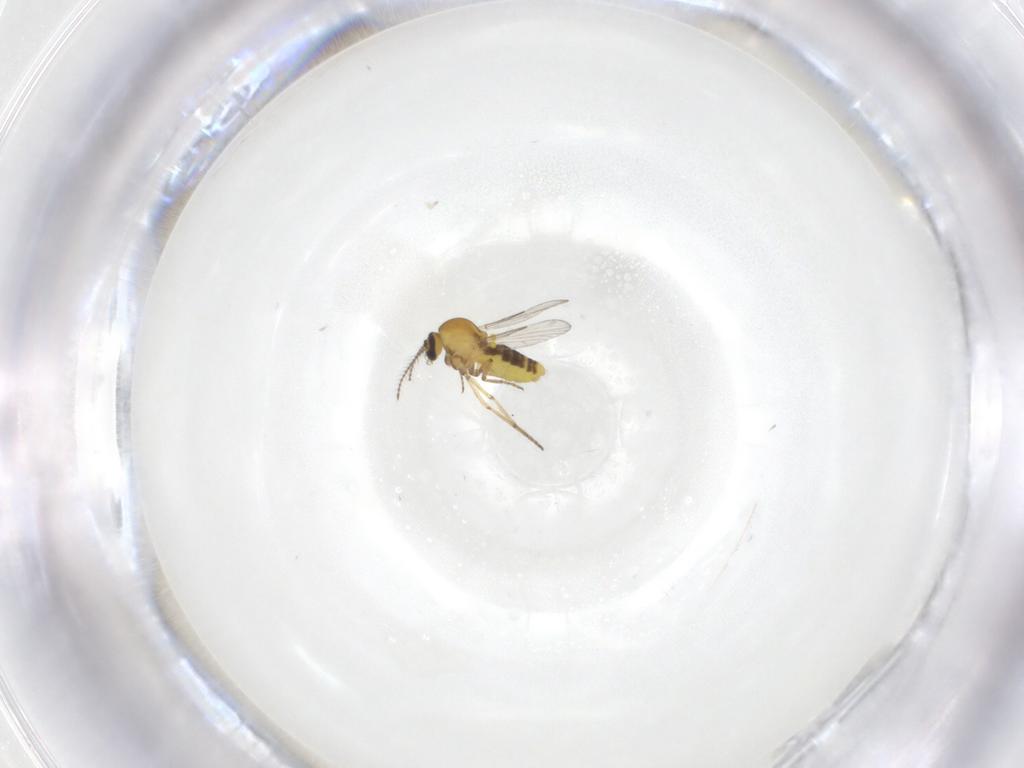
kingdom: Animalia
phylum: Arthropoda
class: Insecta
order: Diptera
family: Ceratopogonidae
